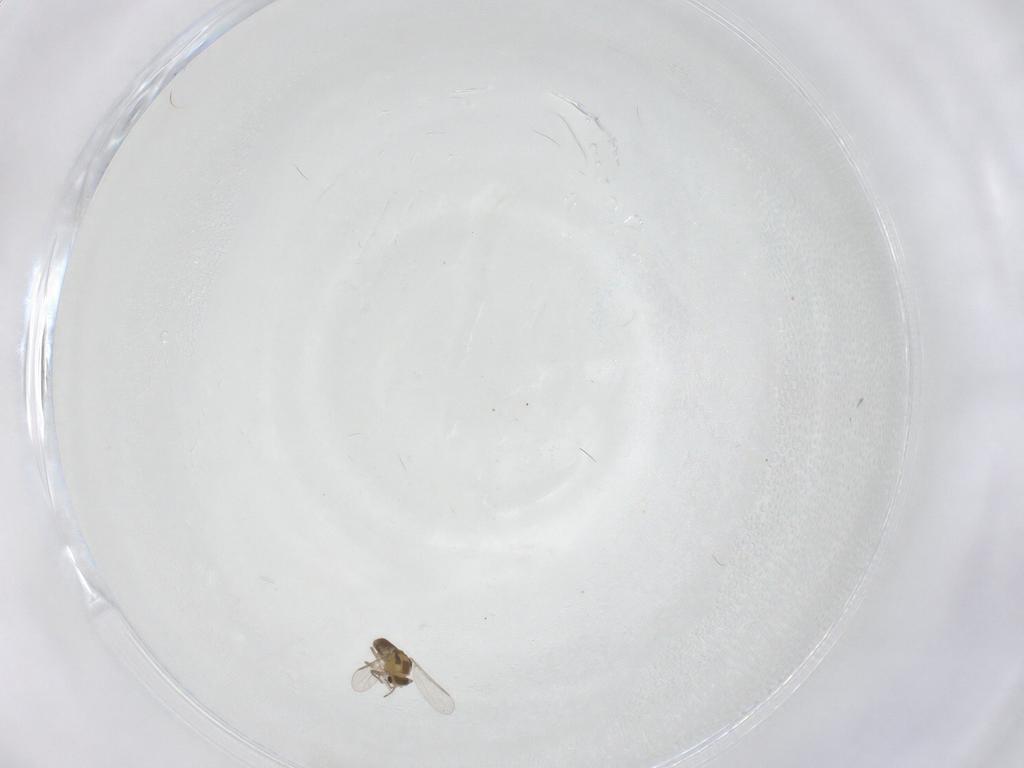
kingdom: Animalia
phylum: Arthropoda
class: Insecta
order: Diptera
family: Chironomidae
